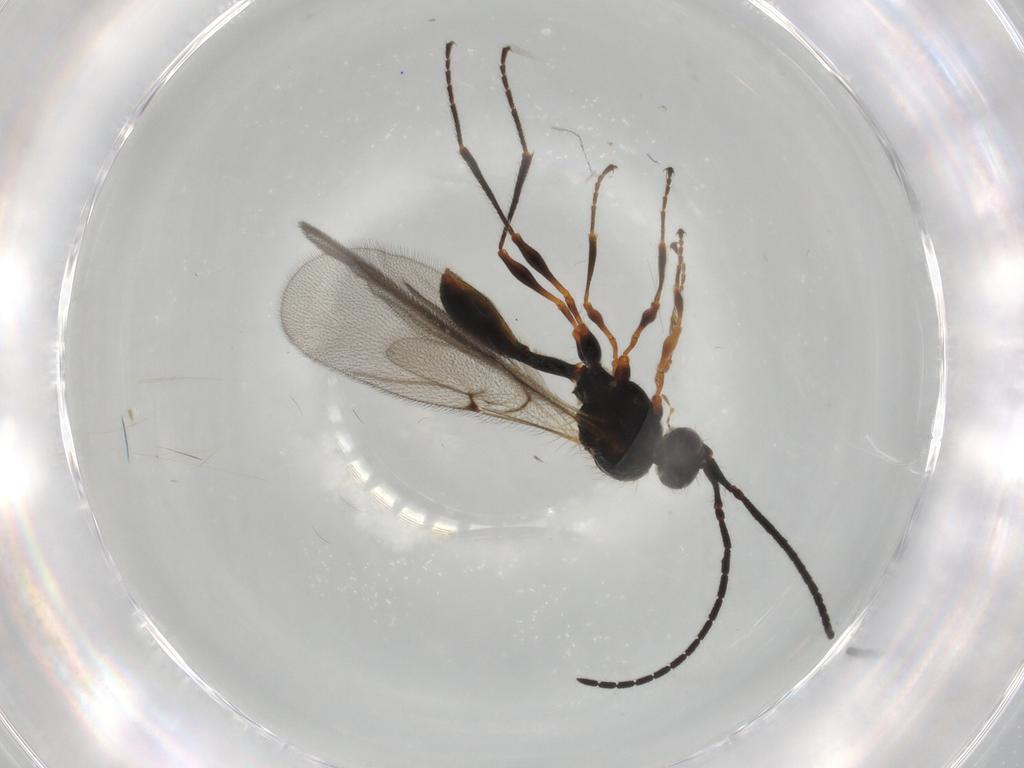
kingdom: Animalia
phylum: Arthropoda
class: Insecta
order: Hymenoptera
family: Diapriidae
